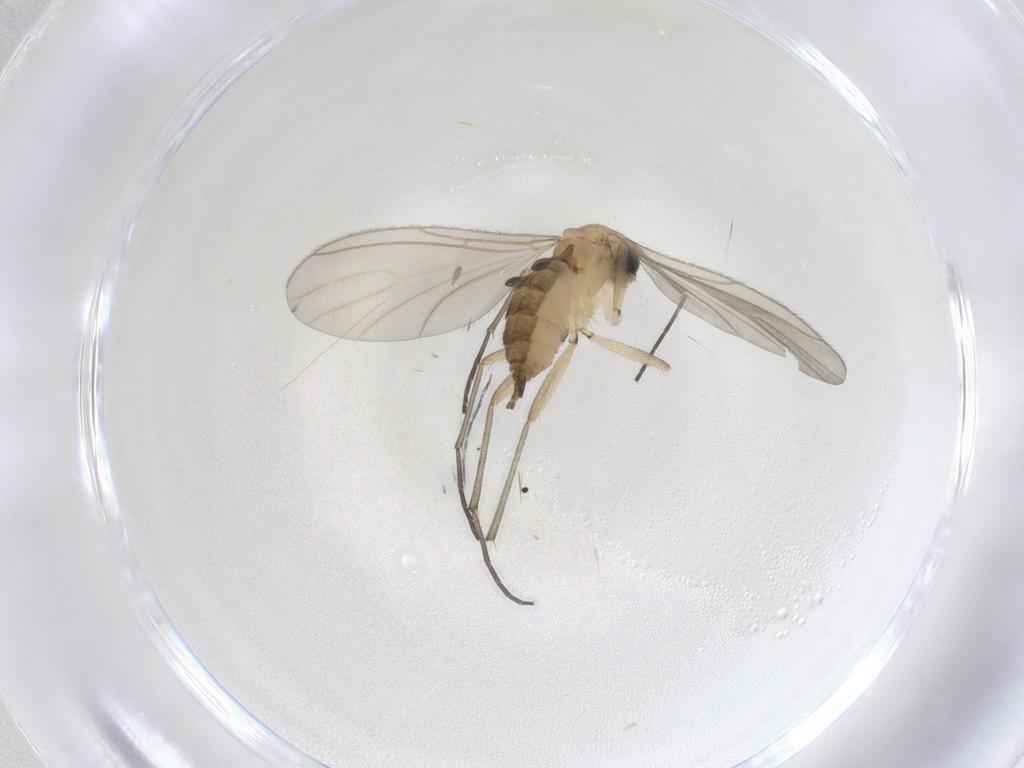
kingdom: Animalia
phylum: Arthropoda
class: Insecta
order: Diptera
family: Sciaridae
